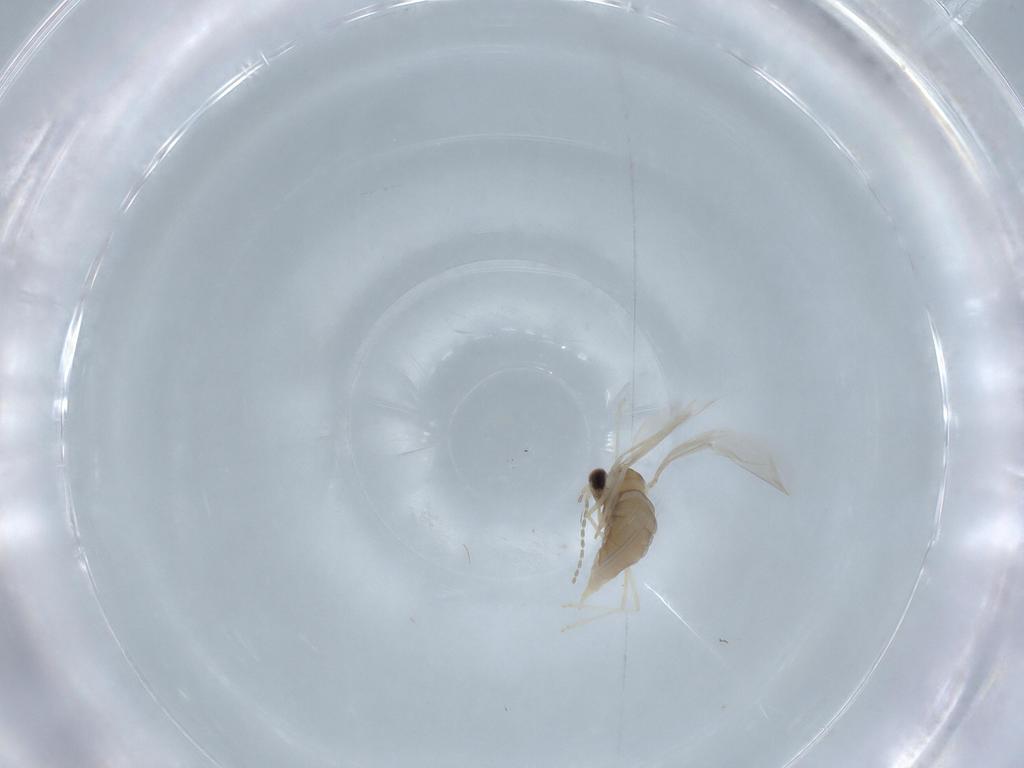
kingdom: Animalia
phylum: Arthropoda
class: Insecta
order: Diptera
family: Cecidomyiidae
